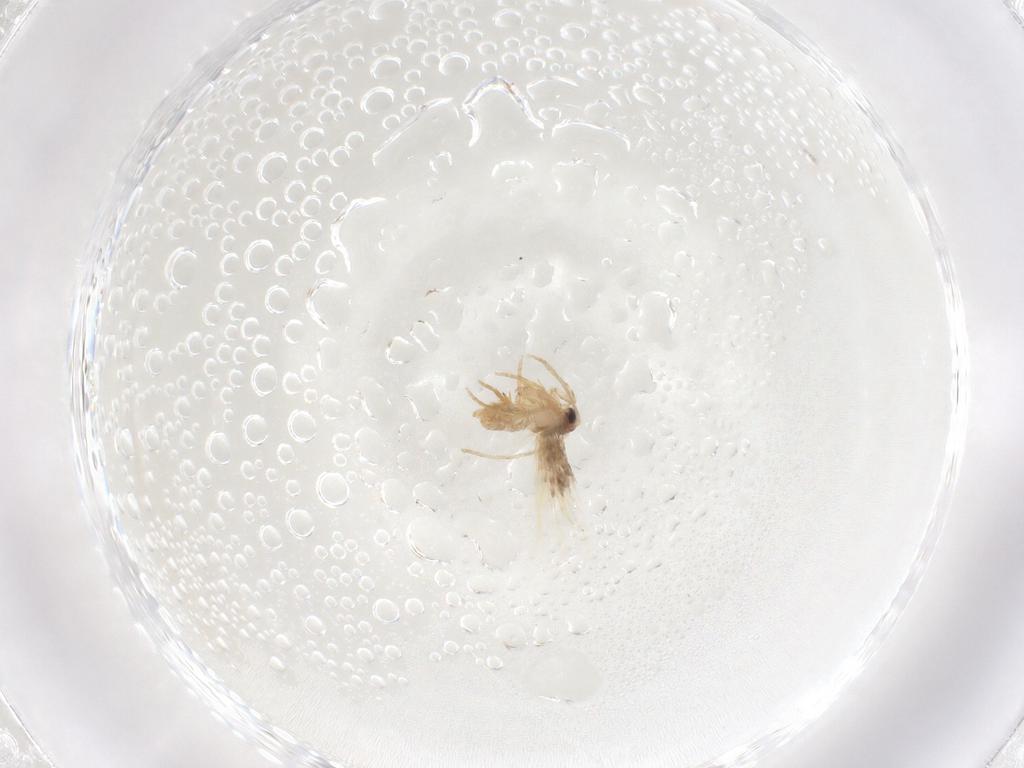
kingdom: Animalia
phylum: Arthropoda
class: Insecta
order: Lepidoptera
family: Nepticulidae
